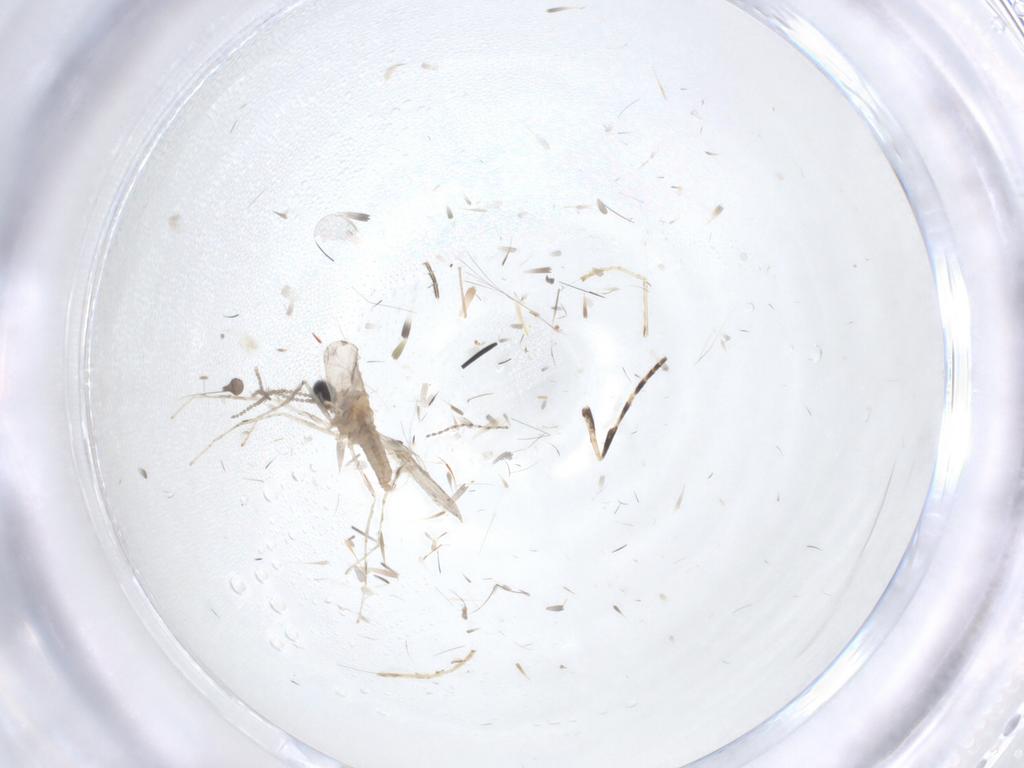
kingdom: Animalia
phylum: Arthropoda
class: Insecta
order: Diptera
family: Cecidomyiidae
